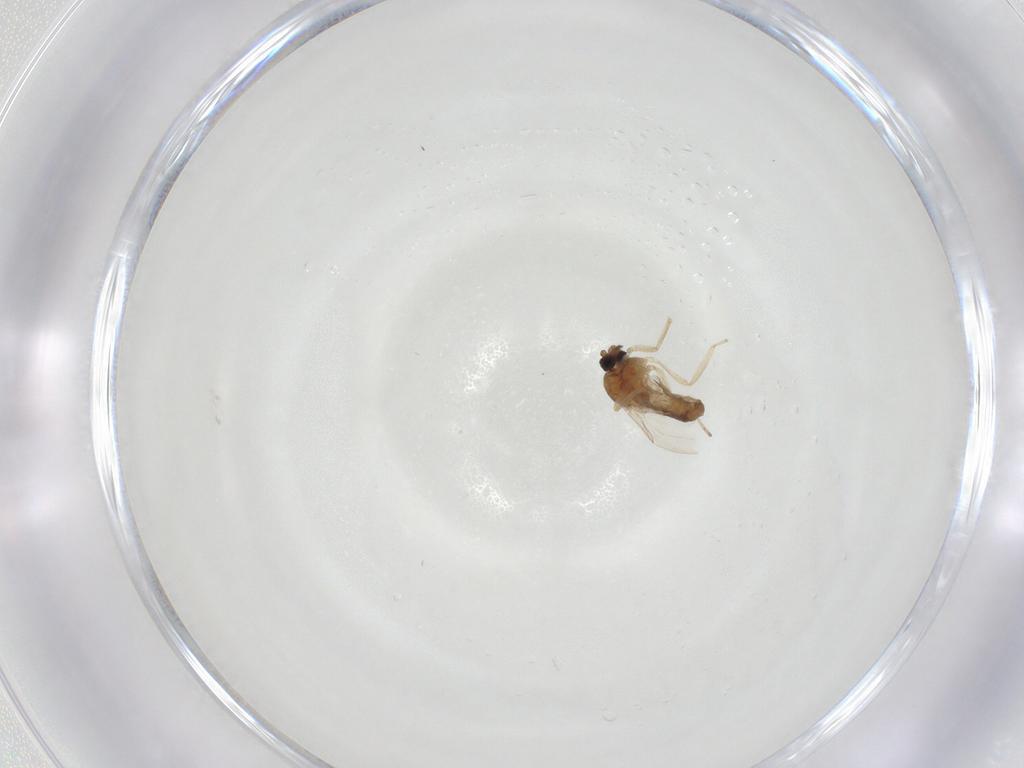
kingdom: Animalia
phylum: Arthropoda
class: Insecta
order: Diptera
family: Ceratopogonidae
